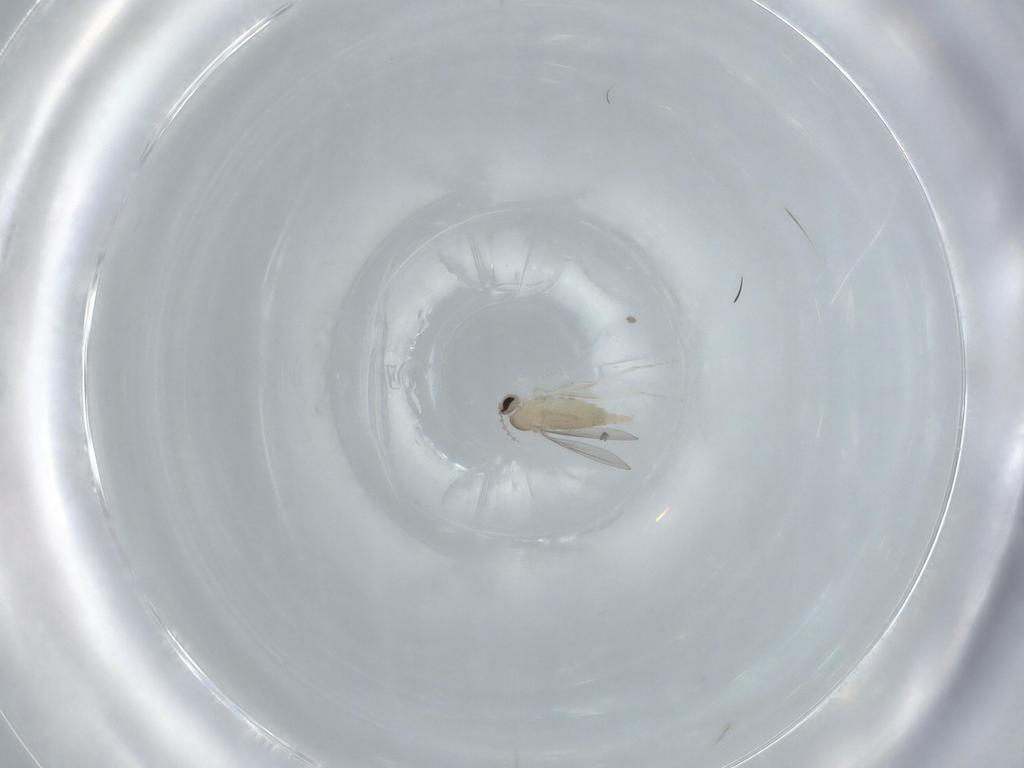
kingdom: Animalia
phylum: Arthropoda
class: Insecta
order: Diptera
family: Cecidomyiidae
